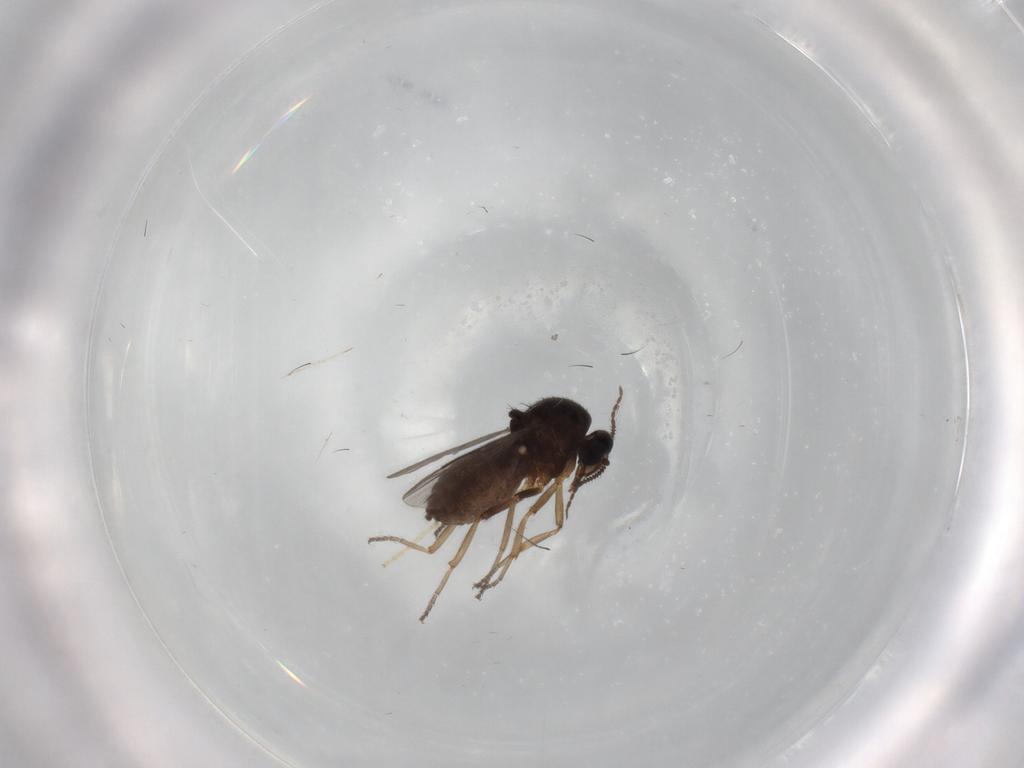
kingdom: Animalia
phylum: Arthropoda
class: Insecta
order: Diptera
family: Ceratopogonidae
